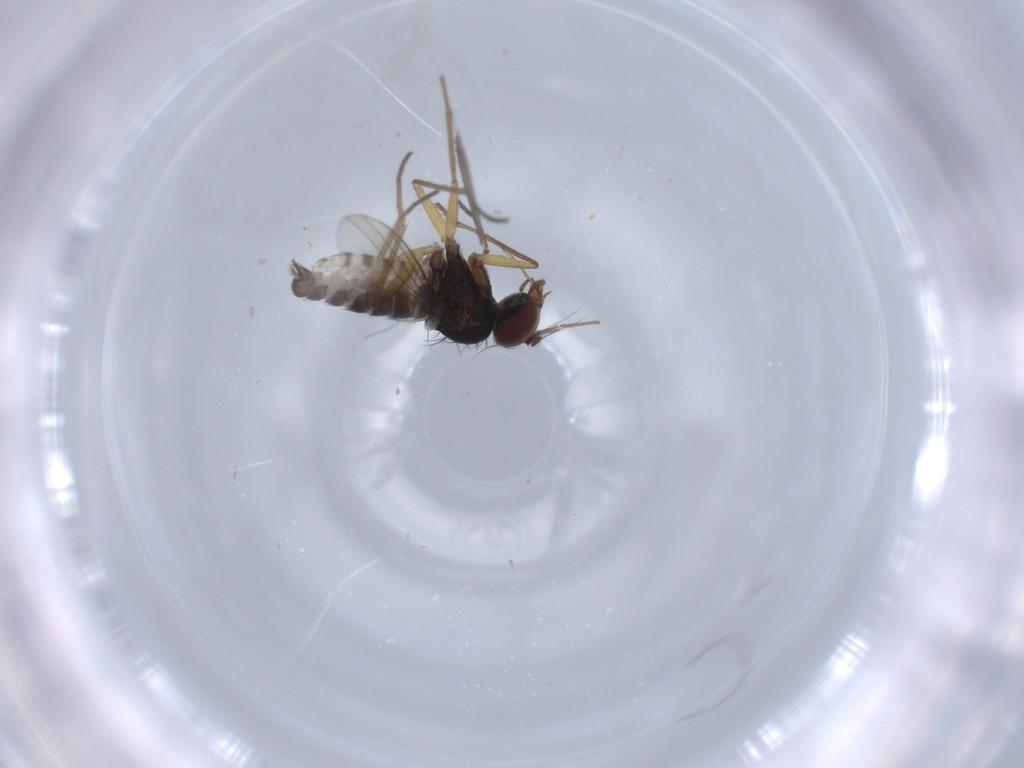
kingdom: Animalia
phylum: Arthropoda
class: Insecta
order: Diptera
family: Dolichopodidae
